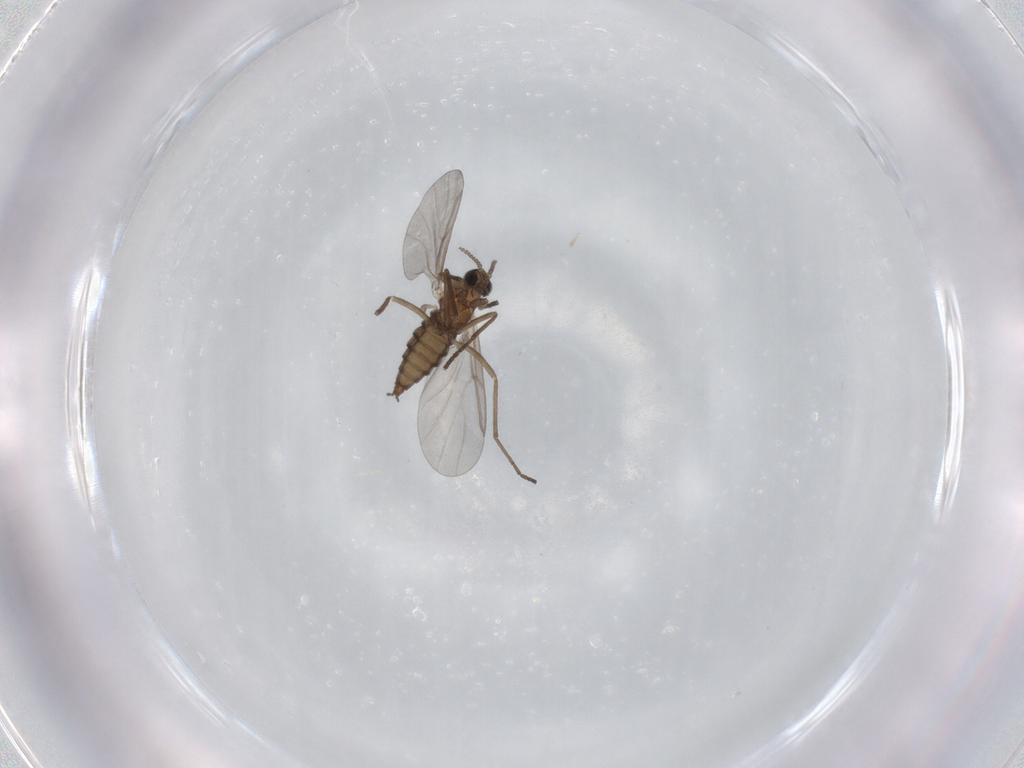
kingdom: Animalia
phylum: Arthropoda
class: Insecta
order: Diptera
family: Cecidomyiidae
